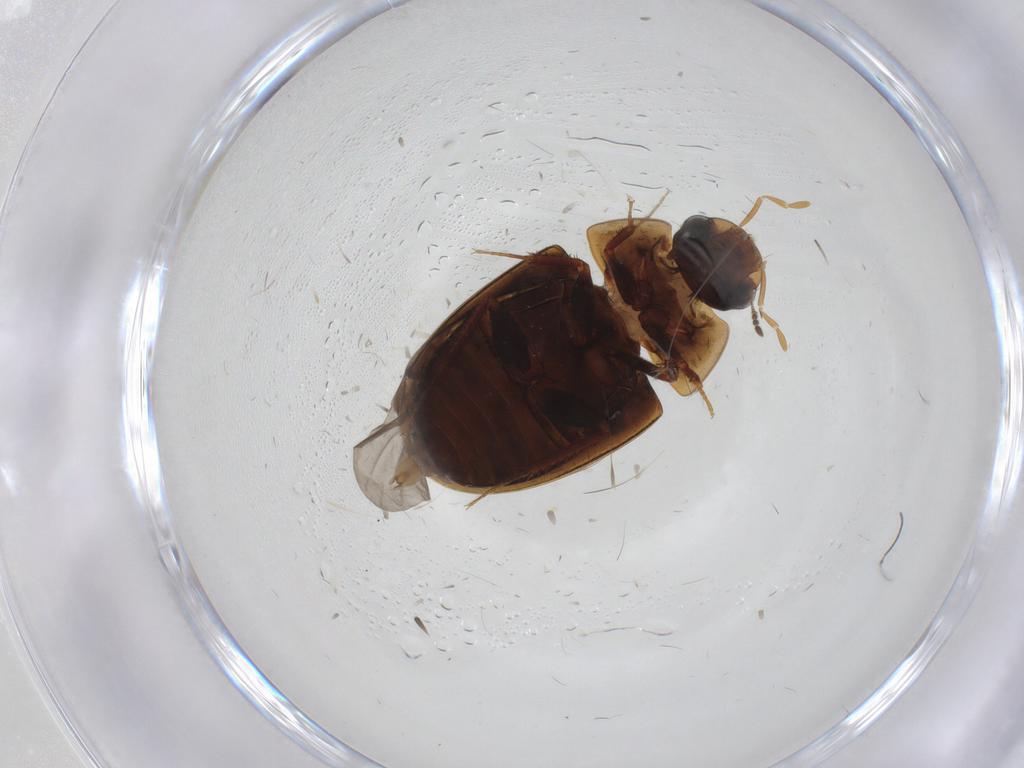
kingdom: Animalia
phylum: Arthropoda
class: Insecta
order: Coleoptera
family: Hydrophilidae
